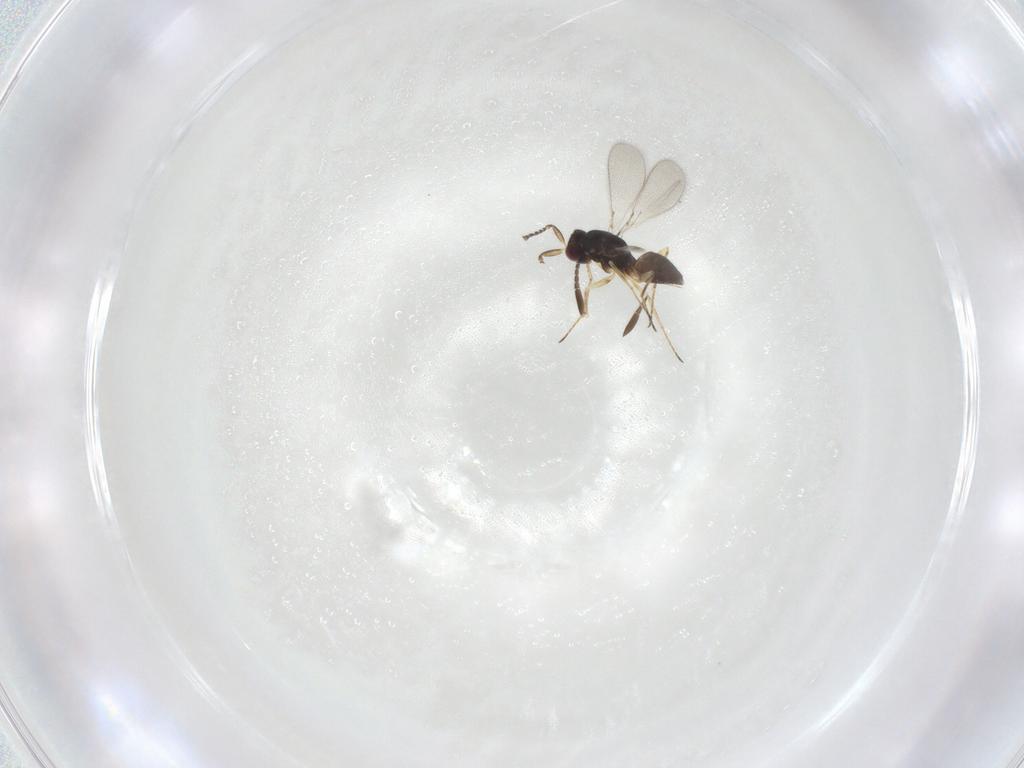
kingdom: Animalia
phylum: Arthropoda
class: Insecta
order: Hymenoptera
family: Mymaridae
